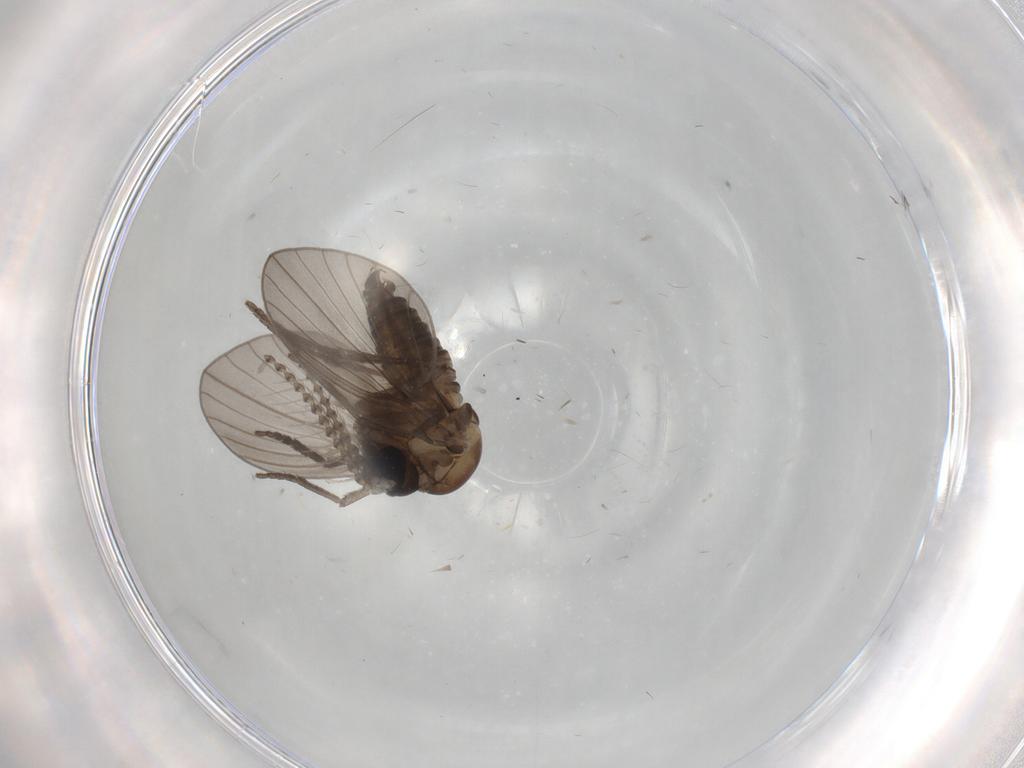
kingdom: Animalia
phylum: Arthropoda
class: Insecta
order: Diptera
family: Psychodidae
